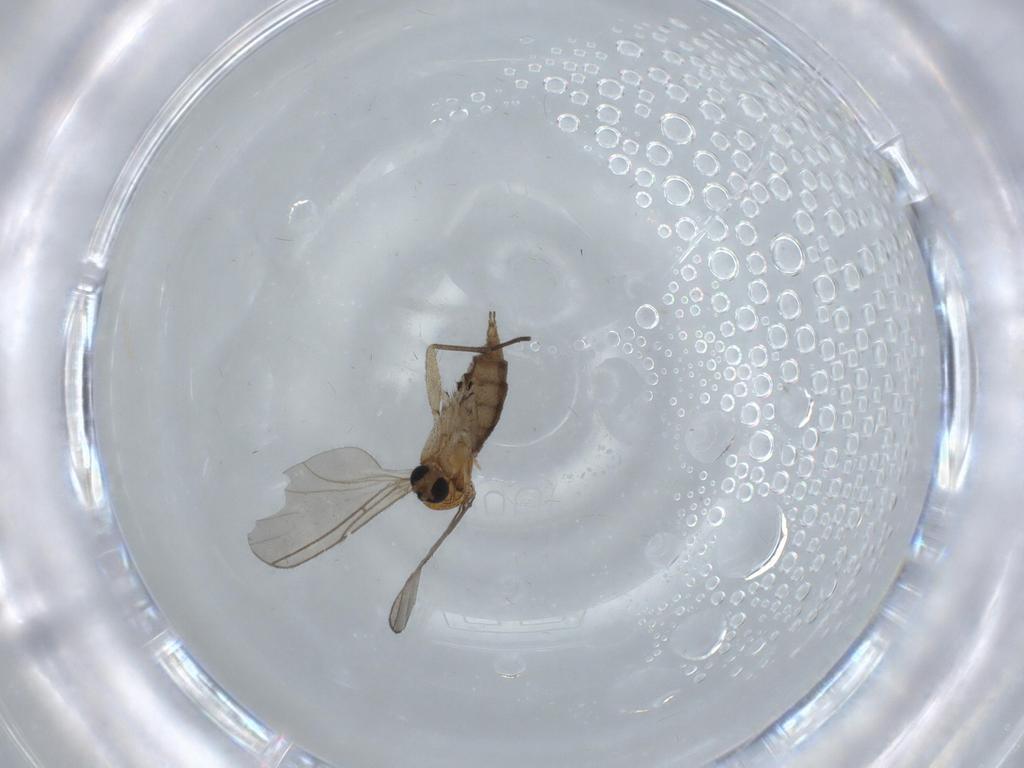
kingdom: Animalia
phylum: Arthropoda
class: Insecta
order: Diptera
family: Sciaridae
